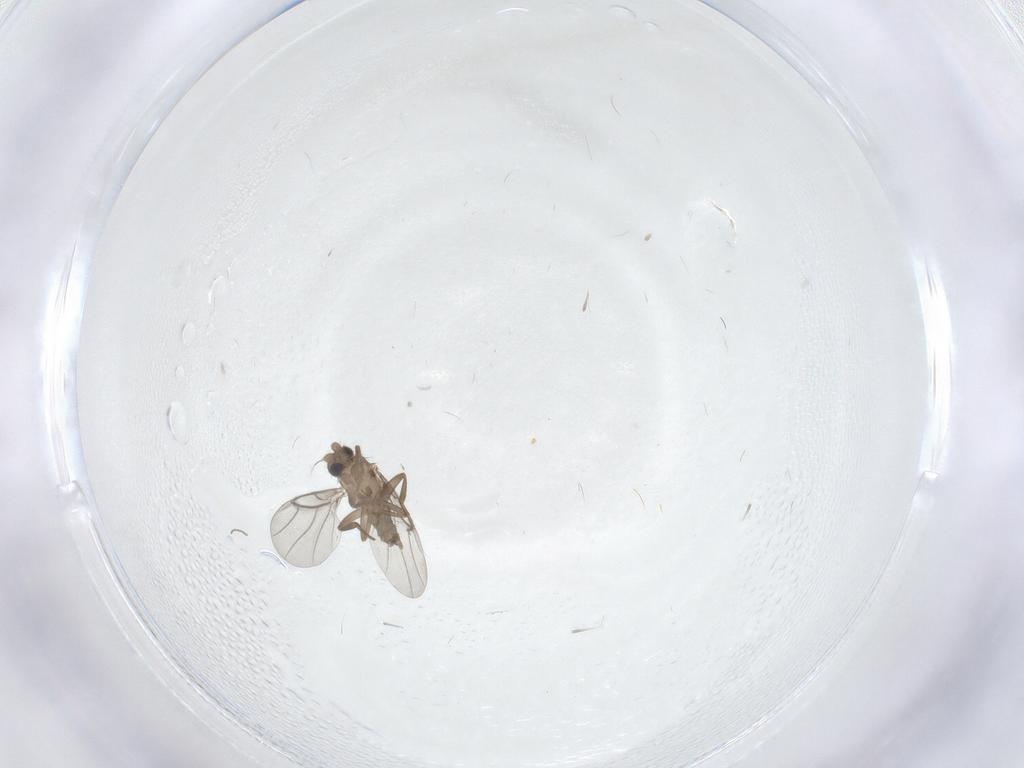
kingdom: Animalia
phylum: Arthropoda
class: Insecta
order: Diptera
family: Cecidomyiidae
